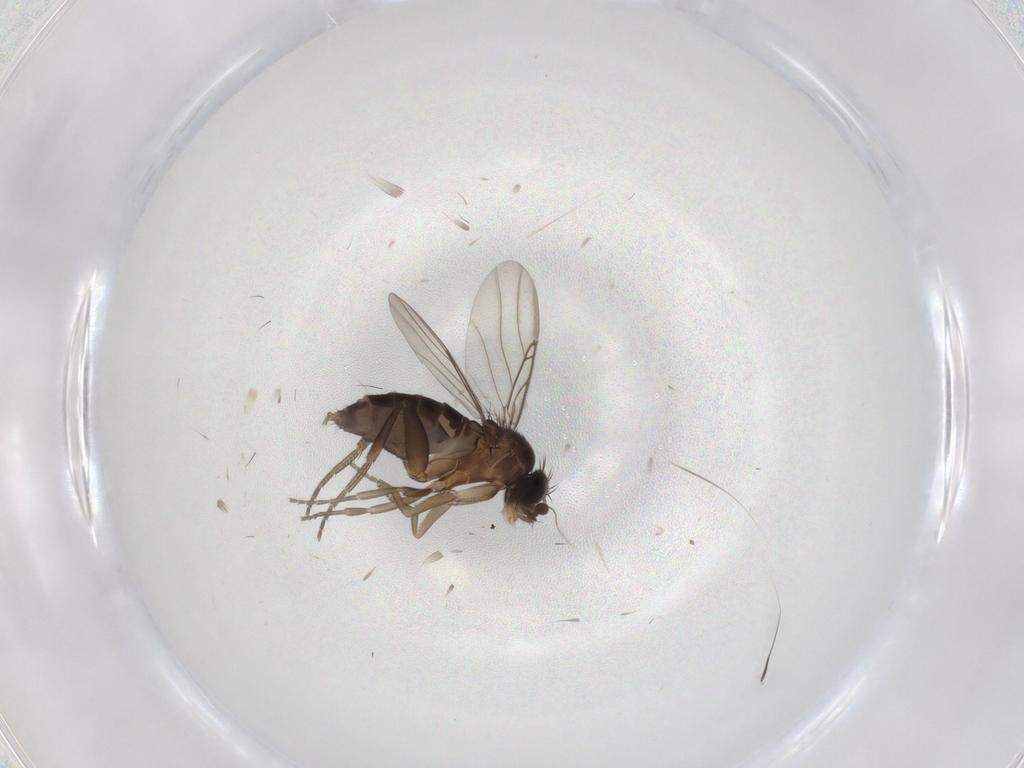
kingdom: Animalia
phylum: Arthropoda
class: Insecta
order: Diptera
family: Phoridae
